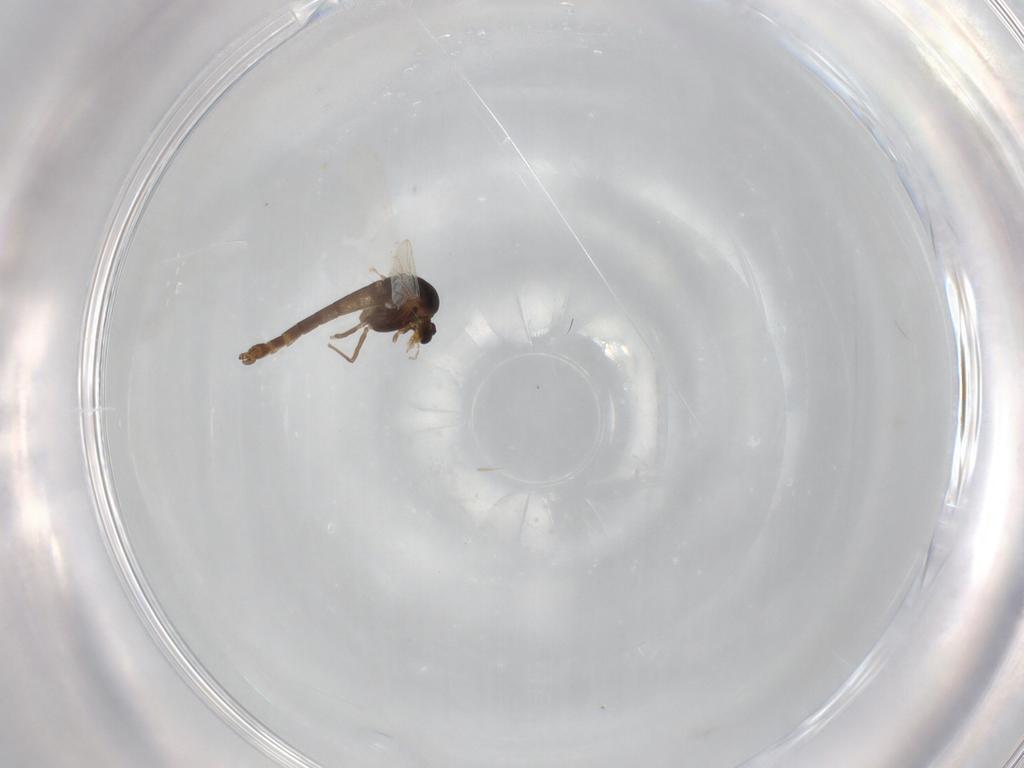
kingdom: Animalia
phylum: Arthropoda
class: Insecta
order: Diptera
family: Chironomidae
